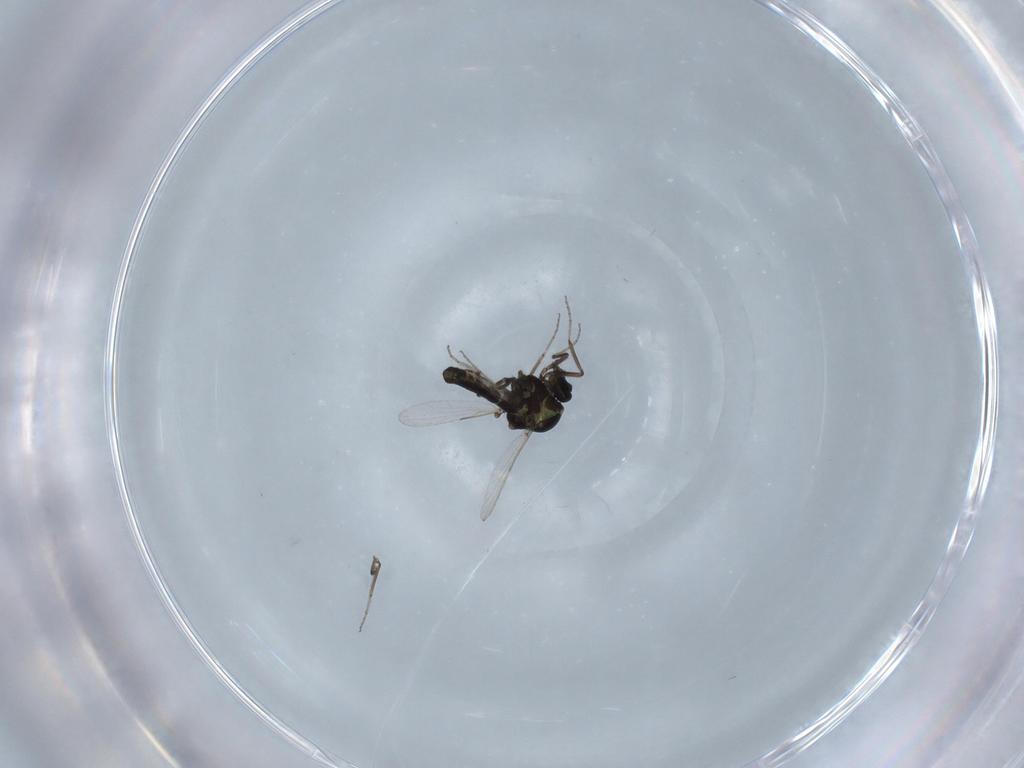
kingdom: Animalia
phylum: Arthropoda
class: Insecta
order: Diptera
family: Ceratopogonidae
